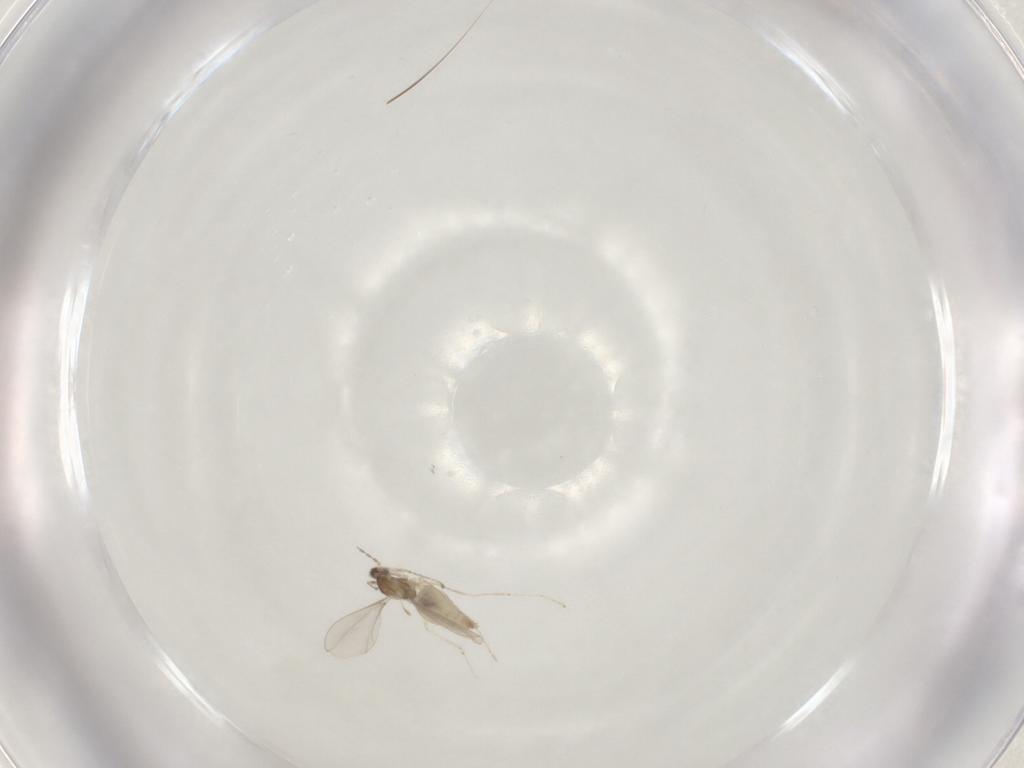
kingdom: Animalia
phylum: Arthropoda
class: Insecta
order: Diptera
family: Cecidomyiidae
